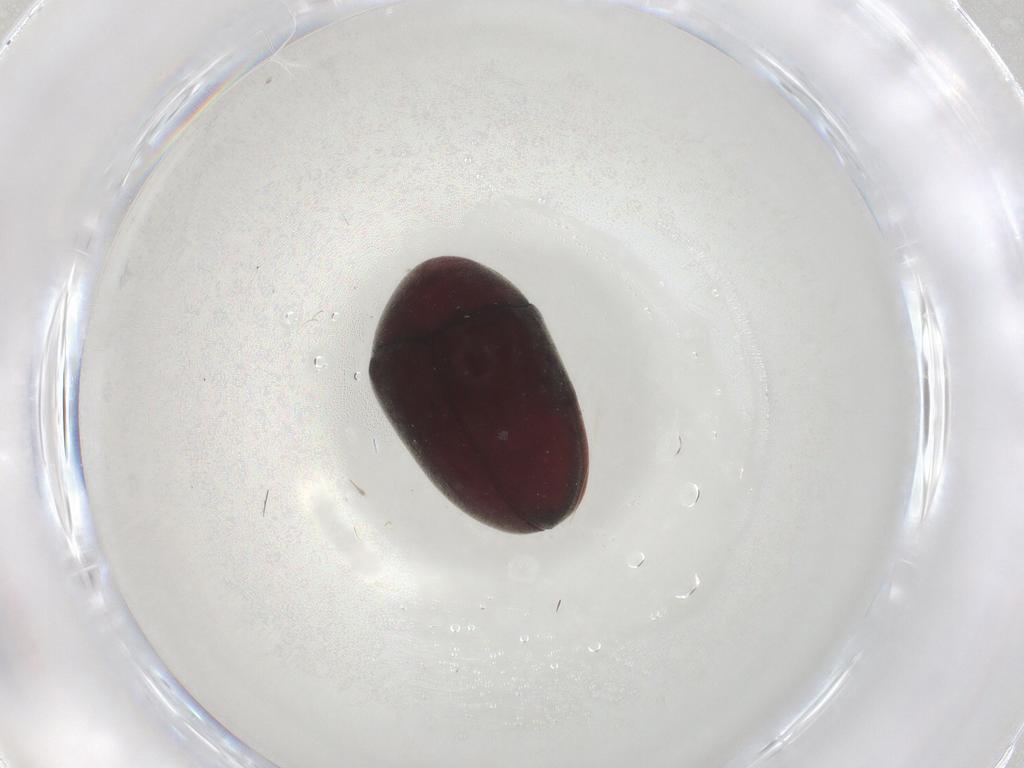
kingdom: Animalia
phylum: Arthropoda
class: Insecta
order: Coleoptera
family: Ptinidae
